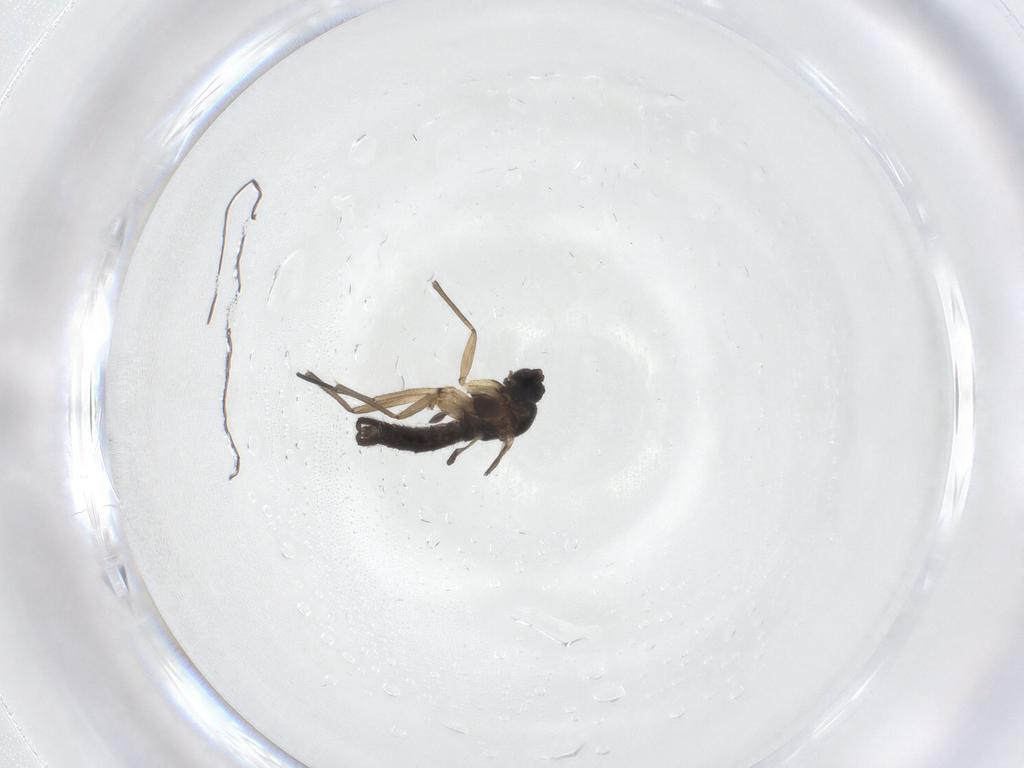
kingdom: Animalia
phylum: Arthropoda
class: Insecta
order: Diptera
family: Sciaridae
